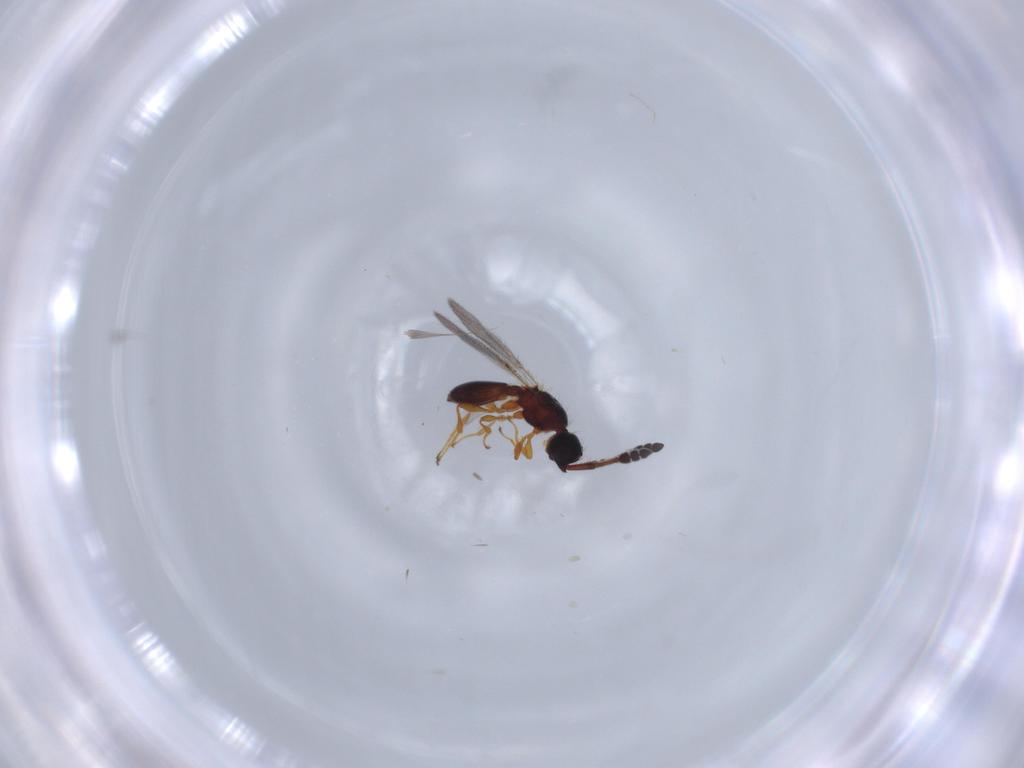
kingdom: Animalia
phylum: Arthropoda
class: Insecta
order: Hymenoptera
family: Diapriidae
